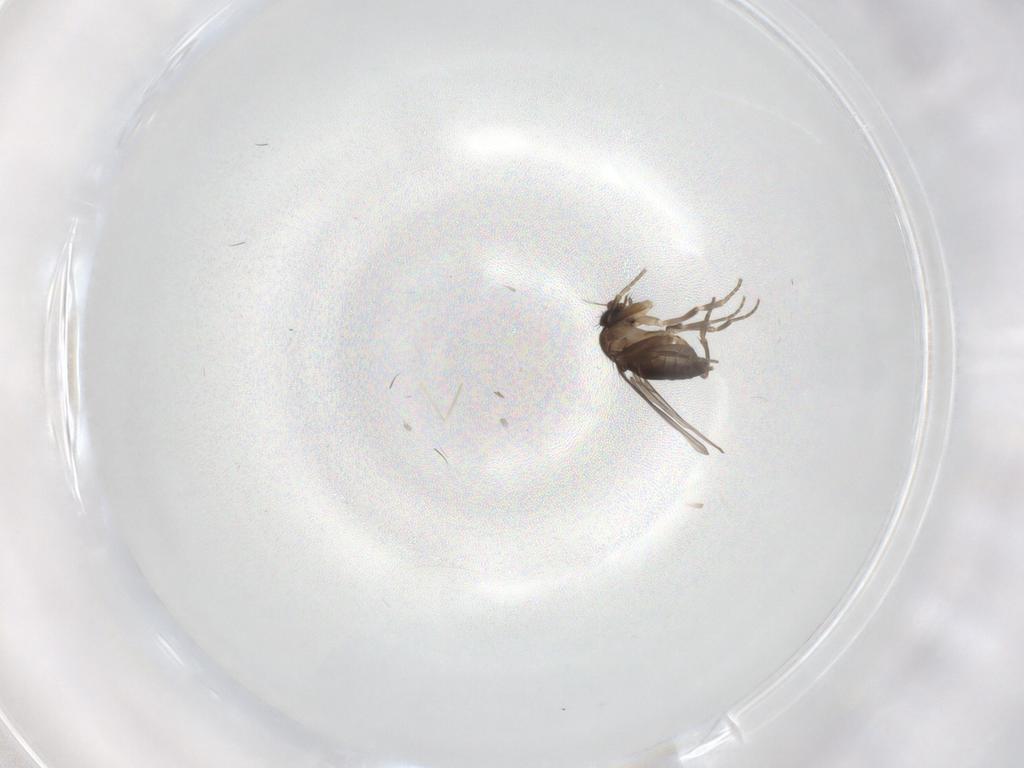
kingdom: Animalia
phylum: Arthropoda
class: Insecta
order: Diptera
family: Phoridae
